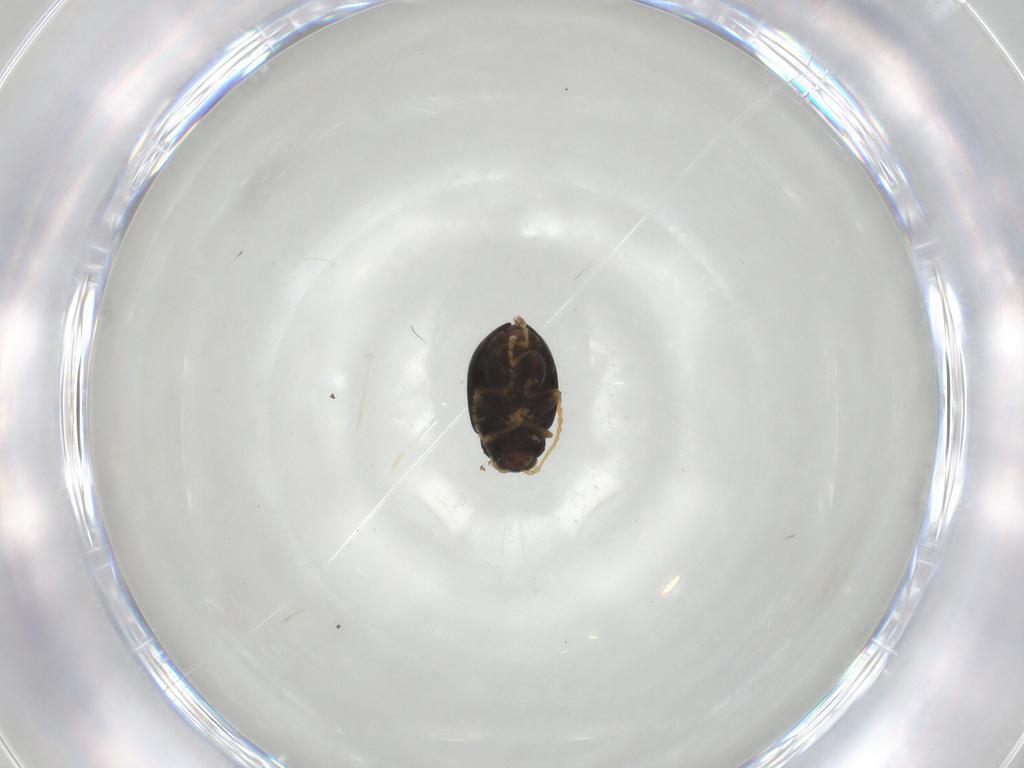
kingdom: Animalia
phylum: Arthropoda
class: Insecta
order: Coleoptera
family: Chrysomelidae
